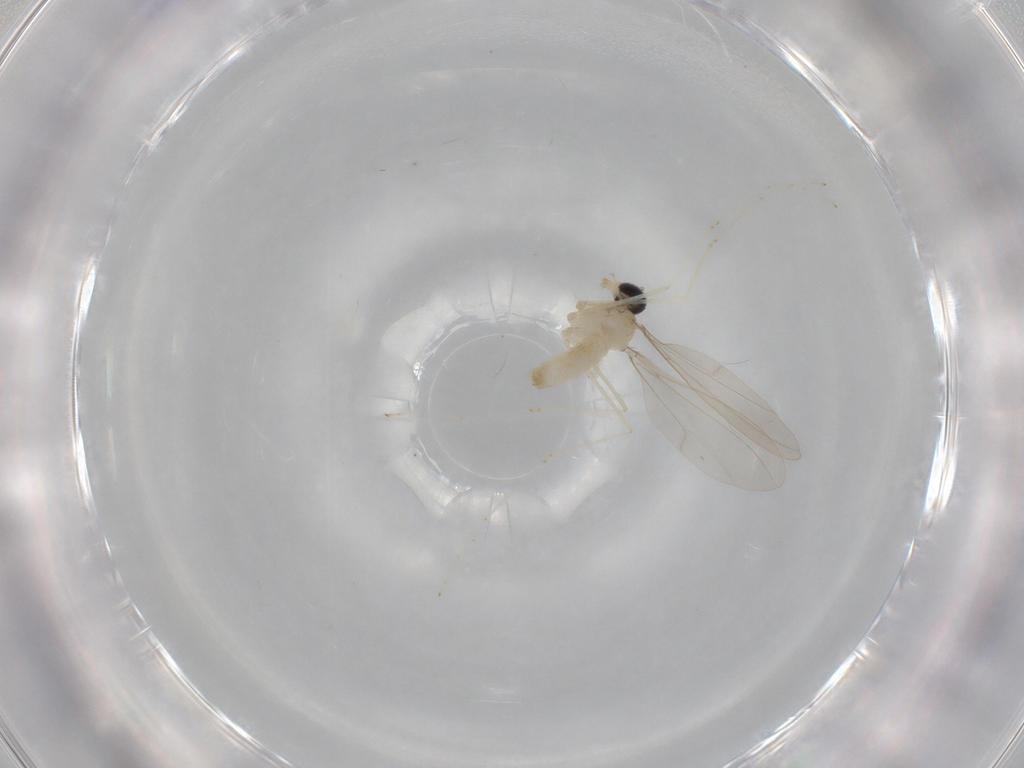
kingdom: Animalia
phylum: Arthropoda
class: Insecta
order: Diptera
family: Cecidomyiidae
